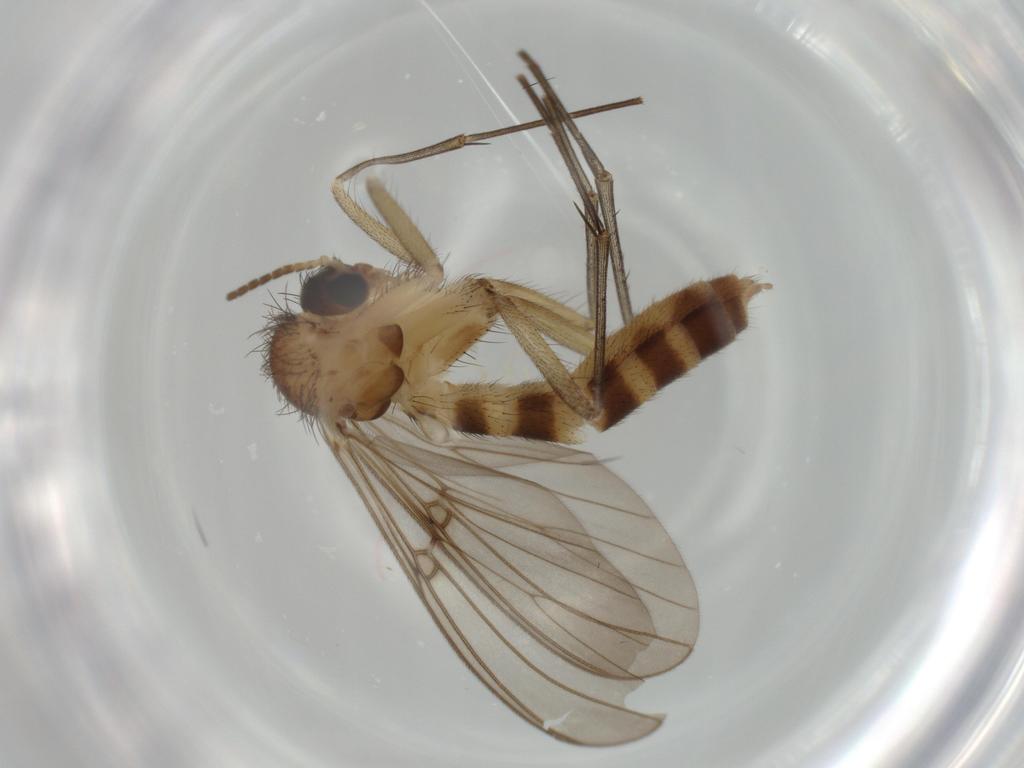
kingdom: Animalia
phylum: Arthropoda
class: Insecta
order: Diptera
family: Mycetophilidae
